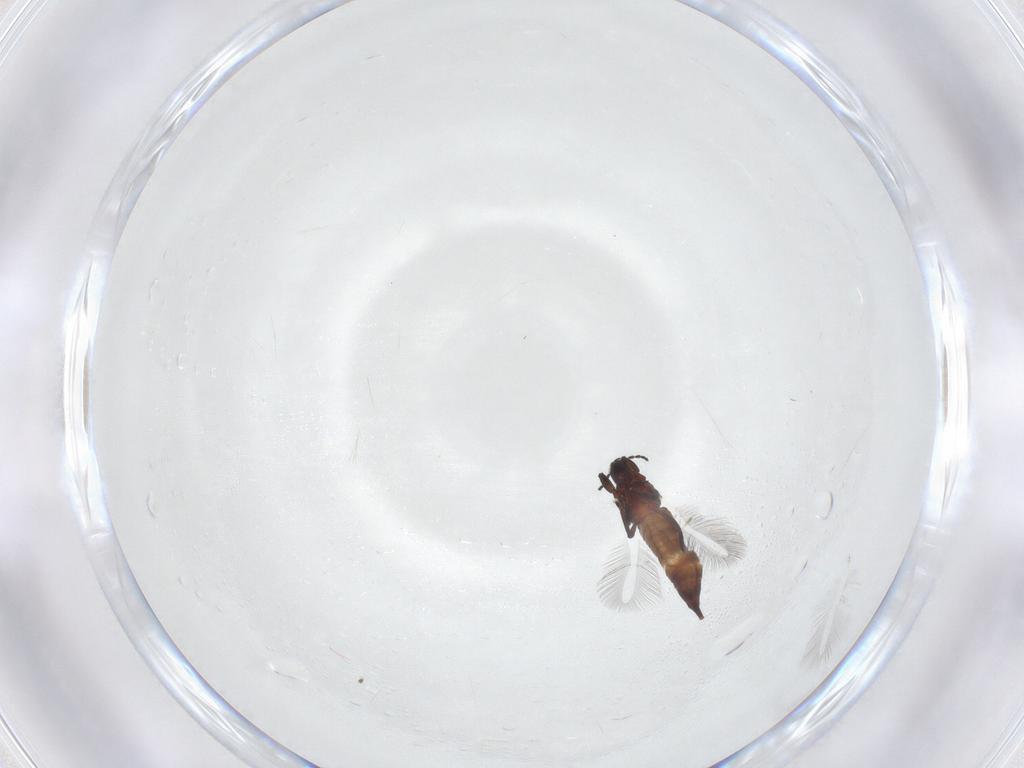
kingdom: Animalia
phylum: Arthropoda
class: Insecta
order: Thysanoptera
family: Phlaeothripidae
